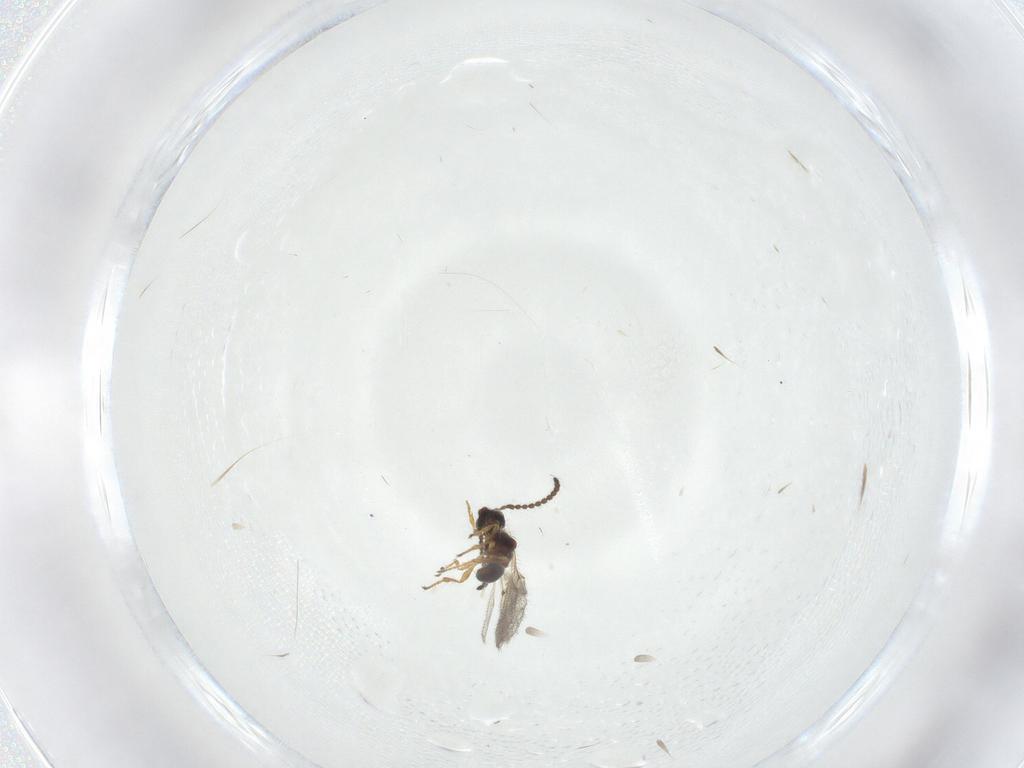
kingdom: Animalia
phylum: Arthropoda
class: Insecta
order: Hymenoptera
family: Diapriidae
